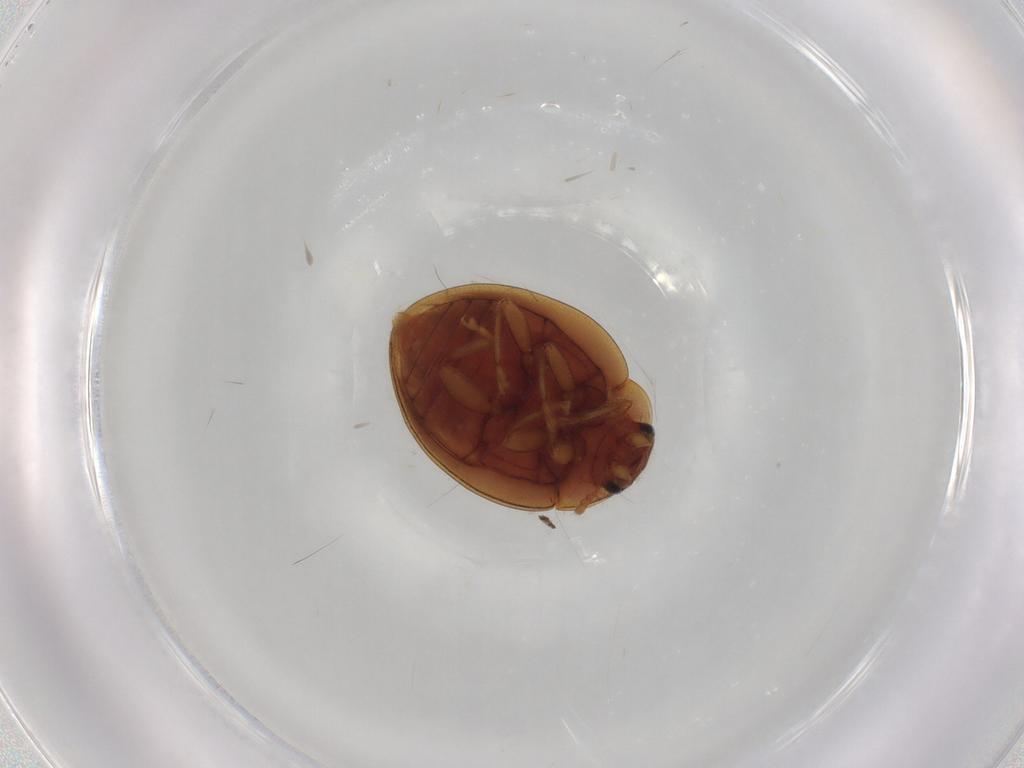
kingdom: Animalia
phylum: Arthropoda
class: Insecta
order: Coleoptera
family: Coccinellidae
